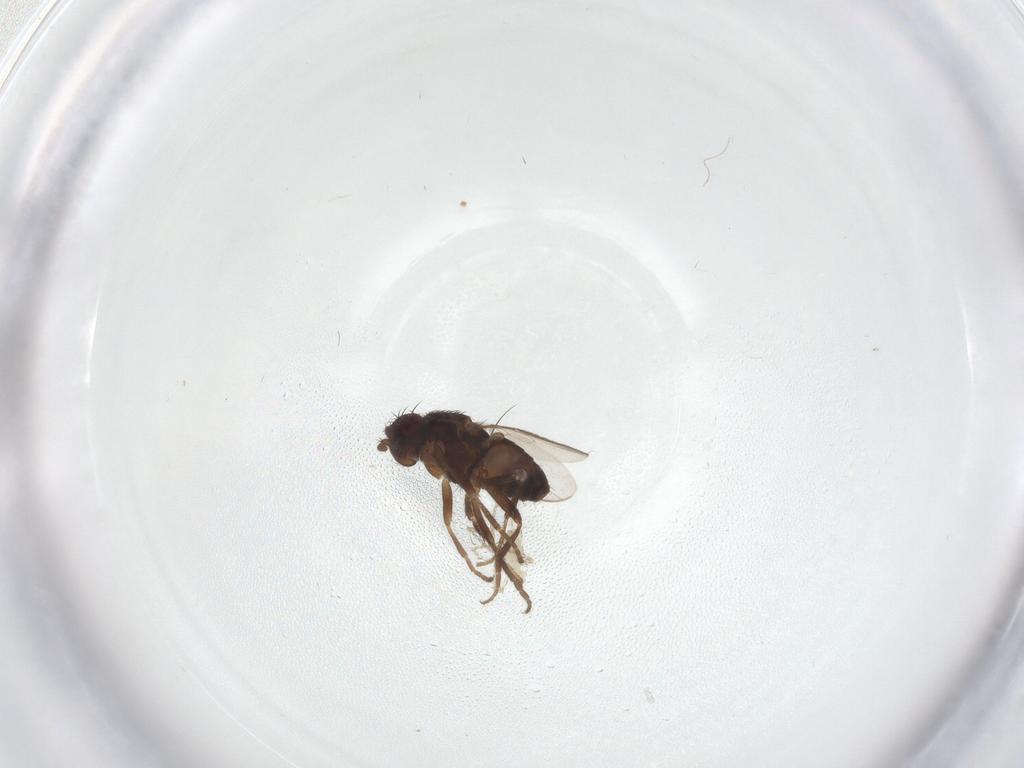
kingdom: Animalia
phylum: Arthropoda
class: Insecta
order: Diptera
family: Sphaeroceridae
